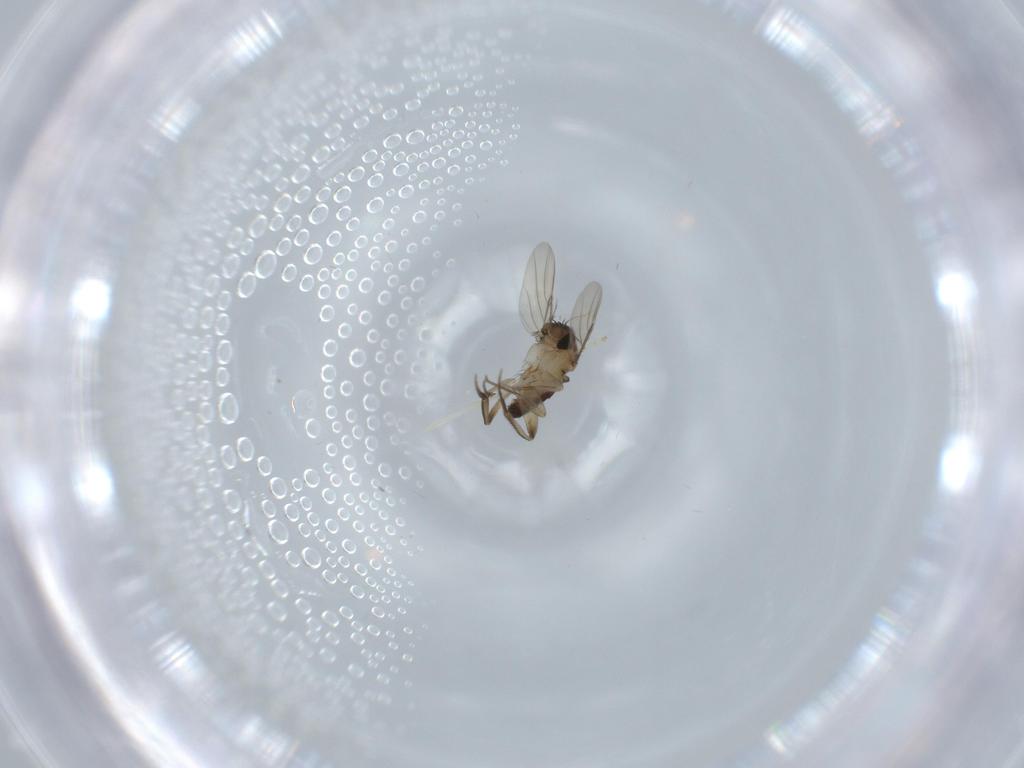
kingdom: Animalia
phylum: Arthropoda
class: Insecta
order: Diptera
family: Phoridae
